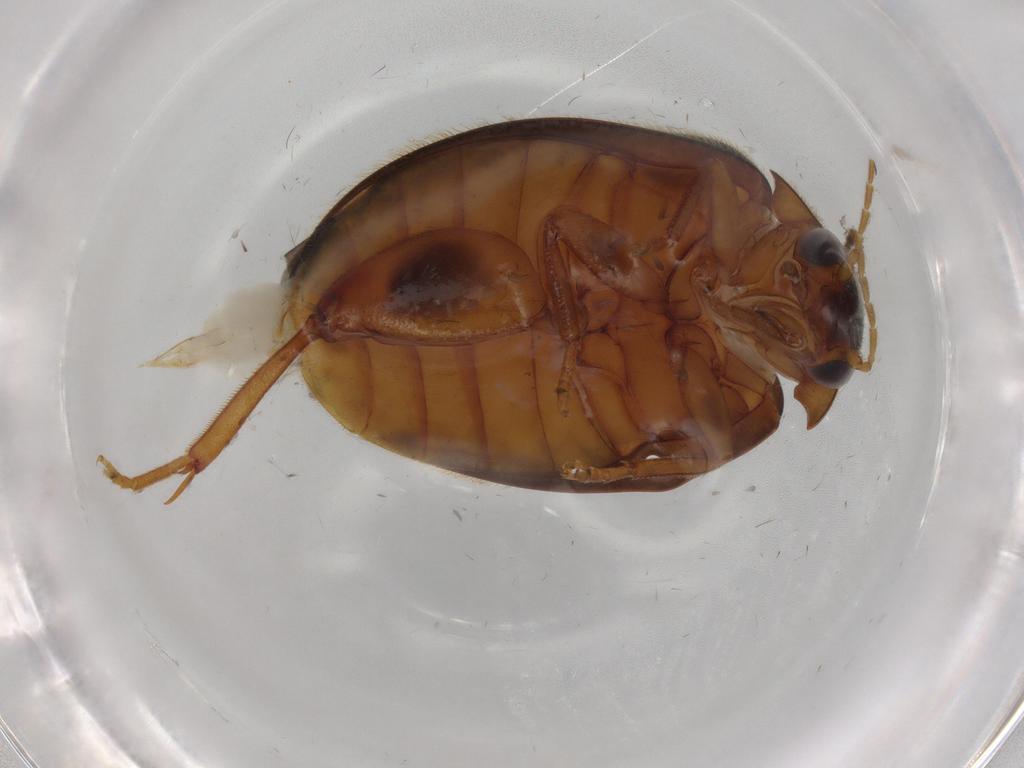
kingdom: Animalia
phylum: Arthropoda
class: Insecta
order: Coleoptera
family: Scirtidae
